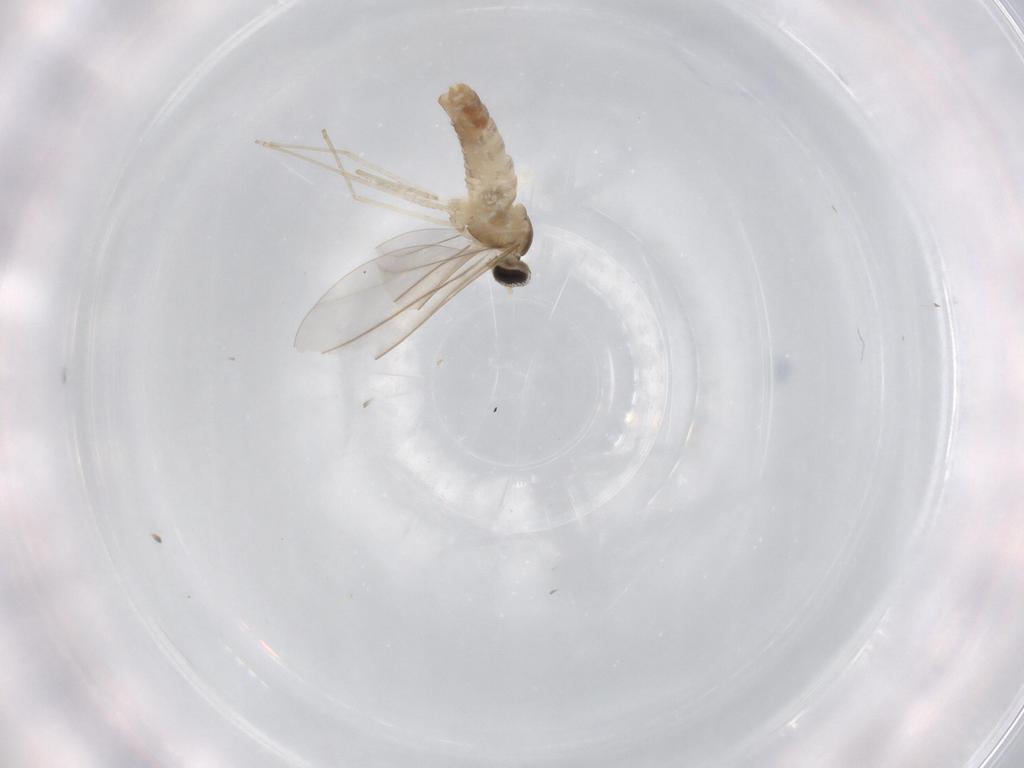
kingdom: Animalia
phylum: Arthropoda
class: Insecta
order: Diptera
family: Cecidomyiidae
